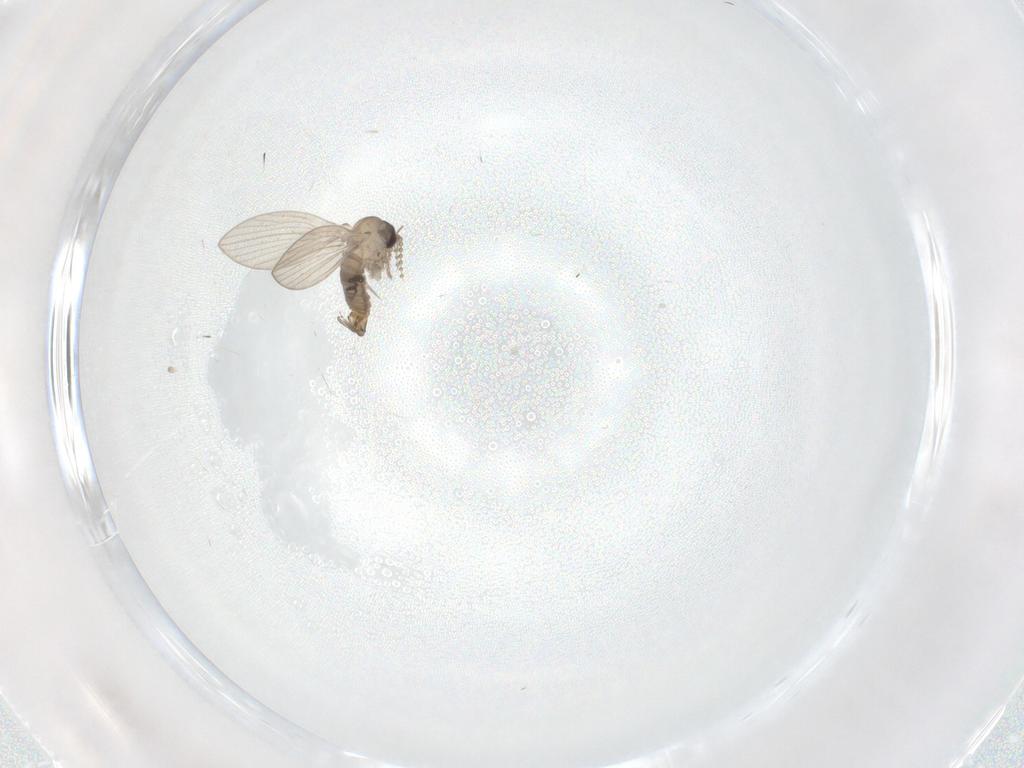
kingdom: Animalia
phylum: Arthropoda
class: Insecta
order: Diptera
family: Psychodidae
